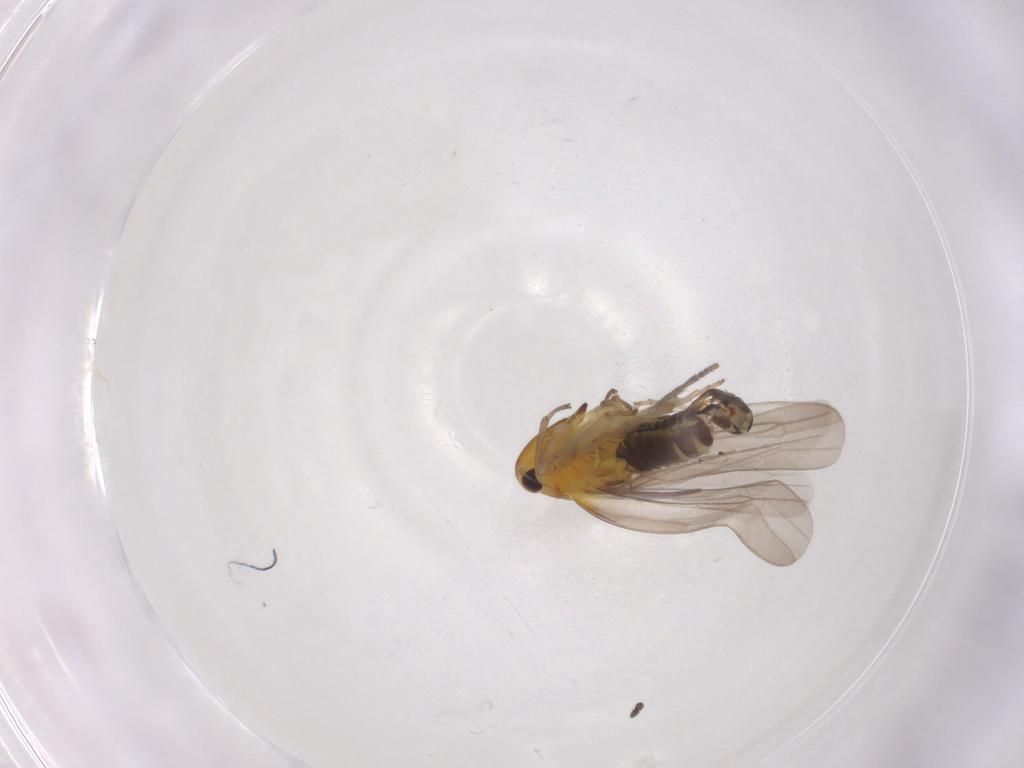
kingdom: Animalia
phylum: Arthropoda
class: Insecta
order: Hemiptera
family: Cicadellidae
